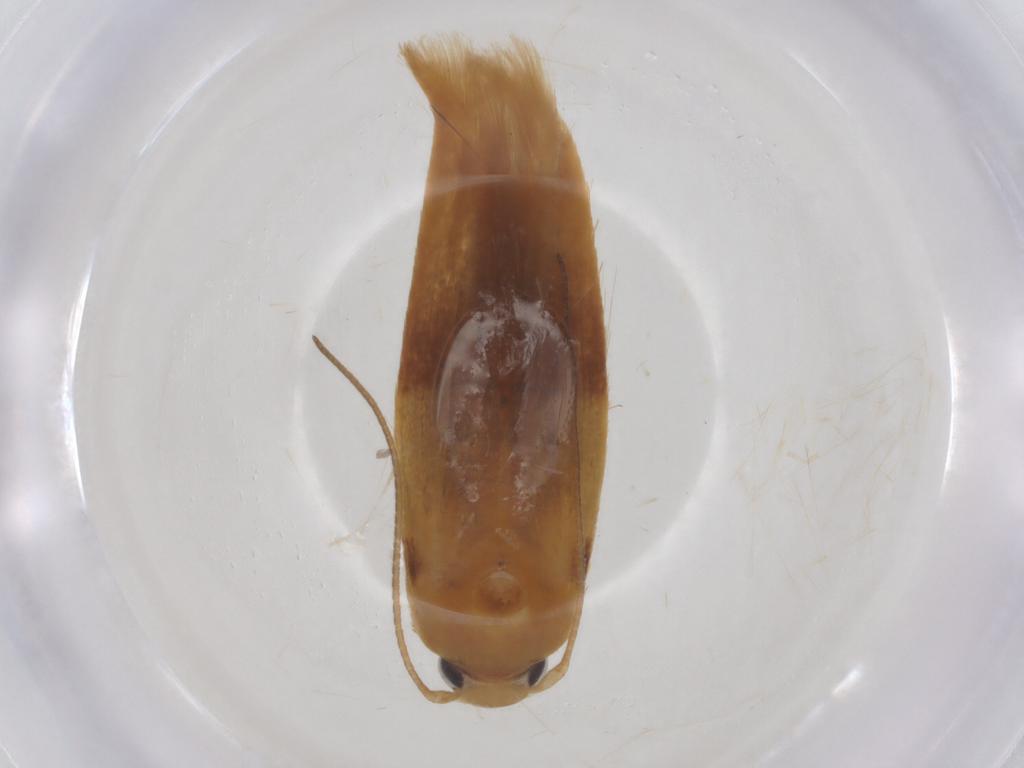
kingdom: Animalia
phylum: Arthropoda
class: Insecta
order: Lepidoptera
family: Stathmopodidae
